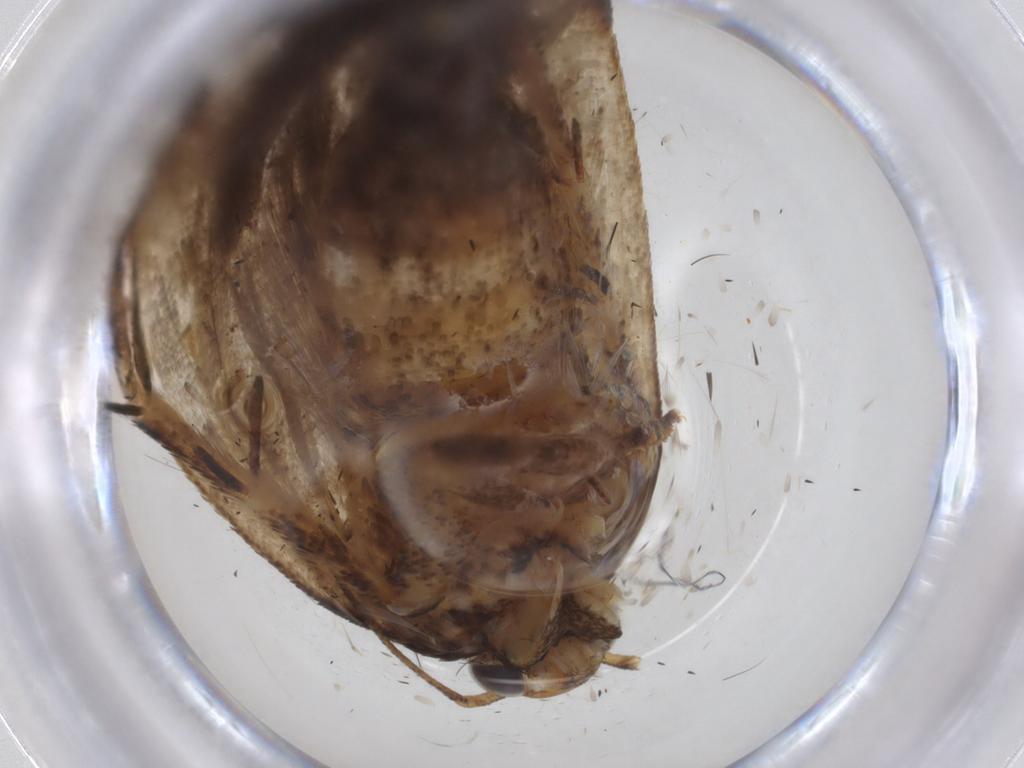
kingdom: Animalia
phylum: Arthropoda
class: Insecta
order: Lepidoptera
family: Gelechiidae
